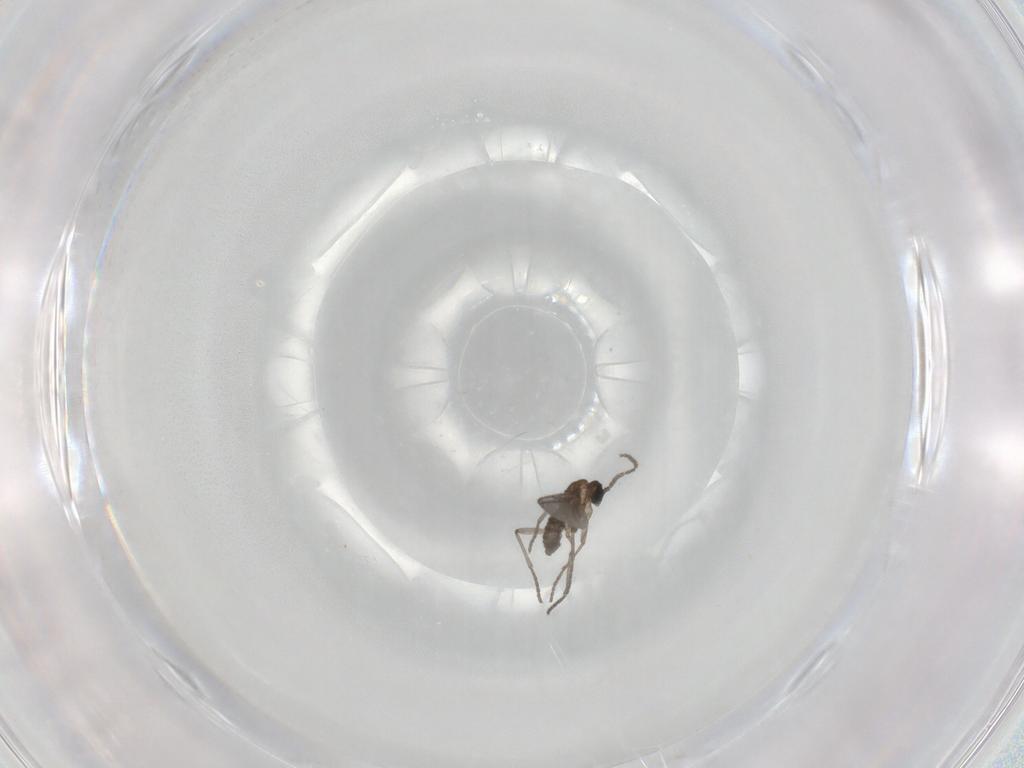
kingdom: Animalia
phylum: Arthropoda
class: Insecta
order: Diptera
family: Sciaridae
